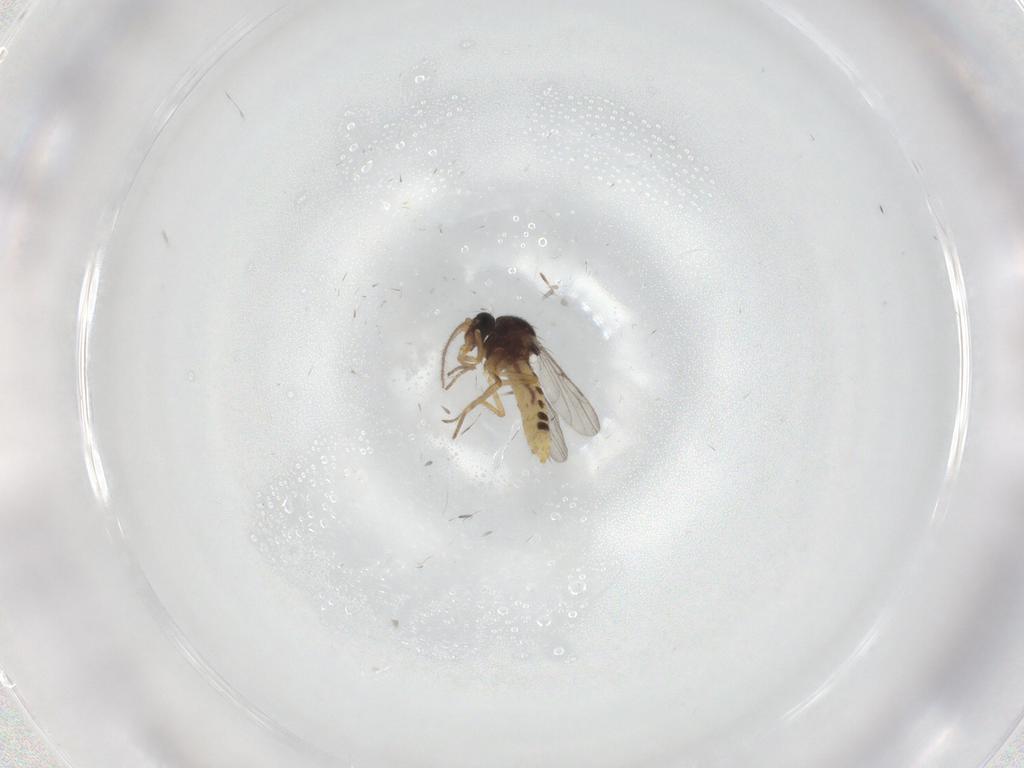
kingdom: Animalia
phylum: Arthropoda
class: Insecta
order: Diptera
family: Ceratopogonidae
